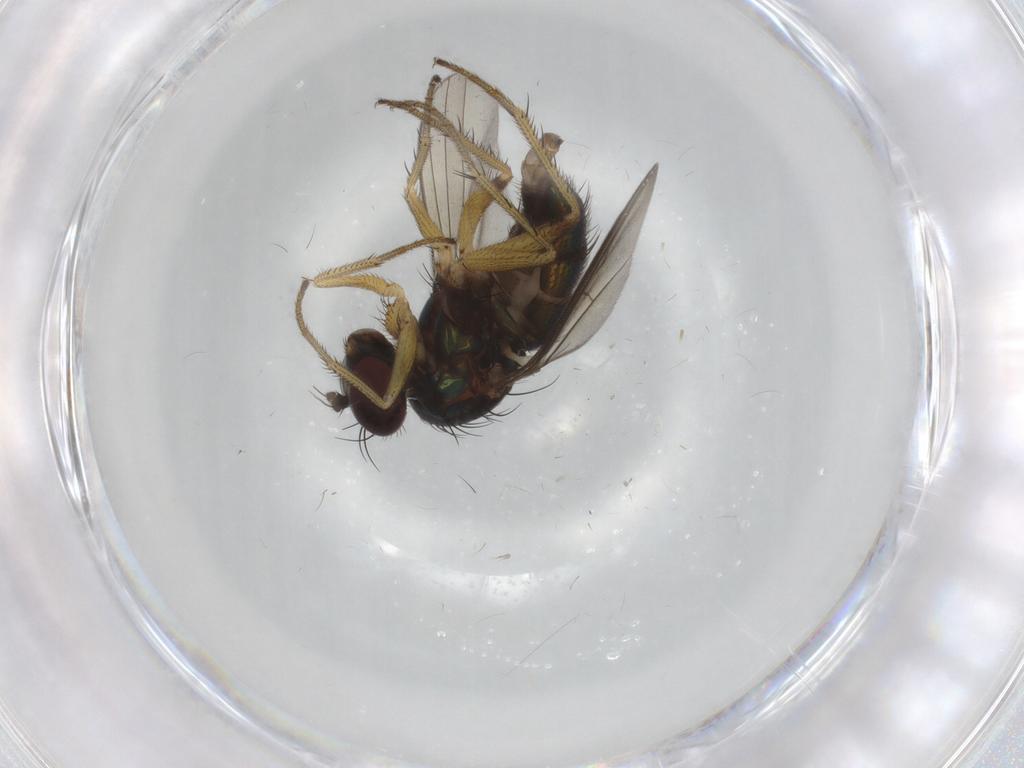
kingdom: Animalia
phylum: Arthropoda
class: Insecta
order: Diptera
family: Dolichopodidae
